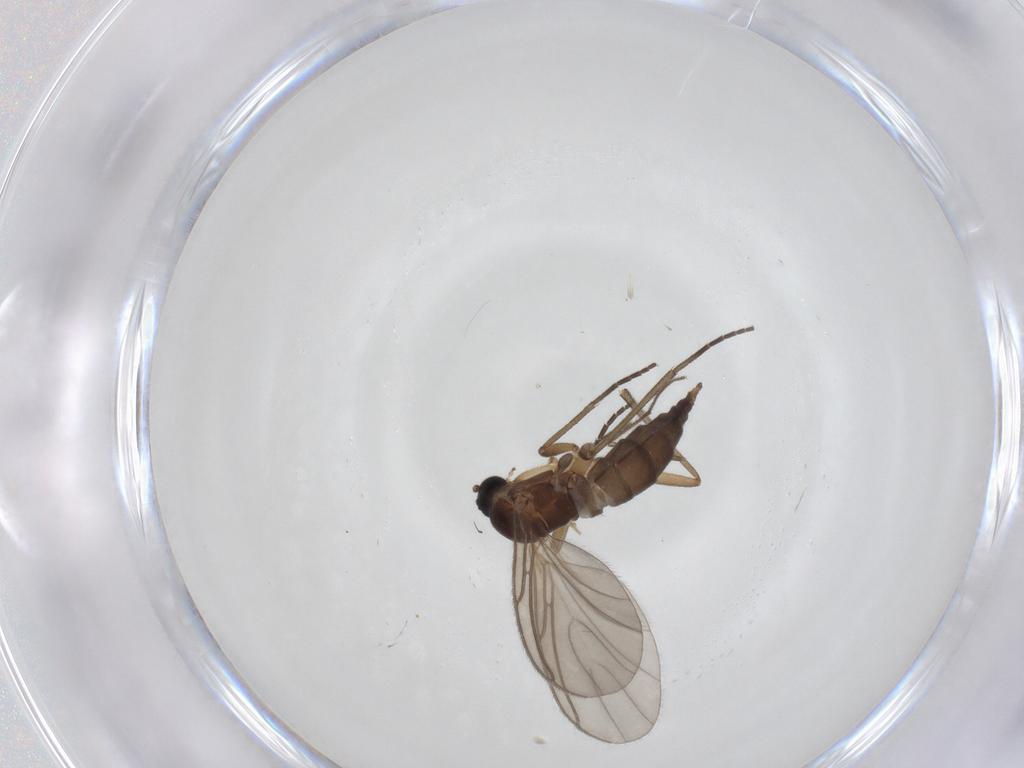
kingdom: Animalia
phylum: Arthropoda
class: Insecta
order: Diptera
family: Sciaridae
